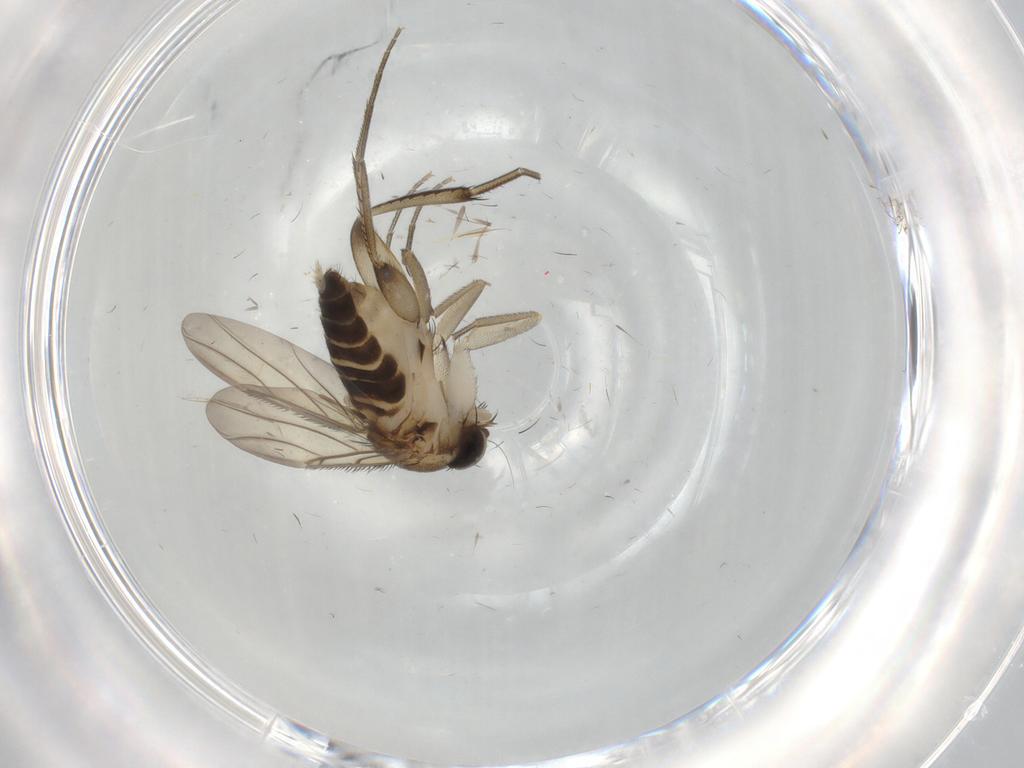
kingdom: Animalia
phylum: Arthropoda
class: Insecta
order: Diptera
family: Phoridae
